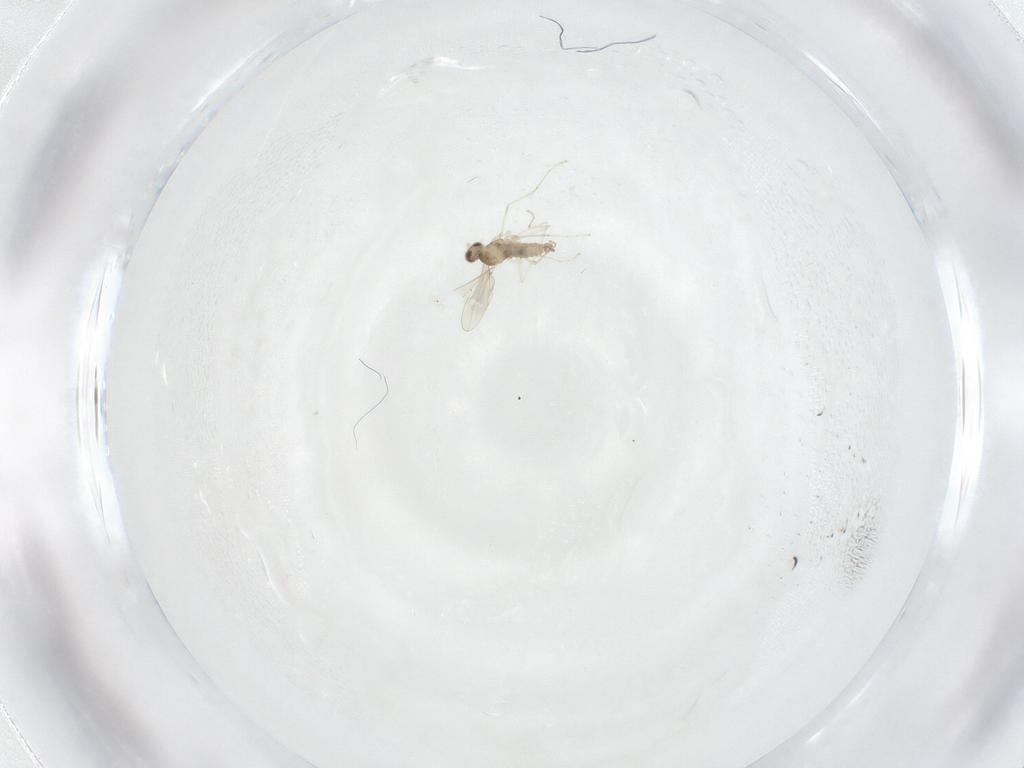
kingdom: Animalia
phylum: Arthropoda
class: Insecta
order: Diptera
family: Cecidomyiidae
